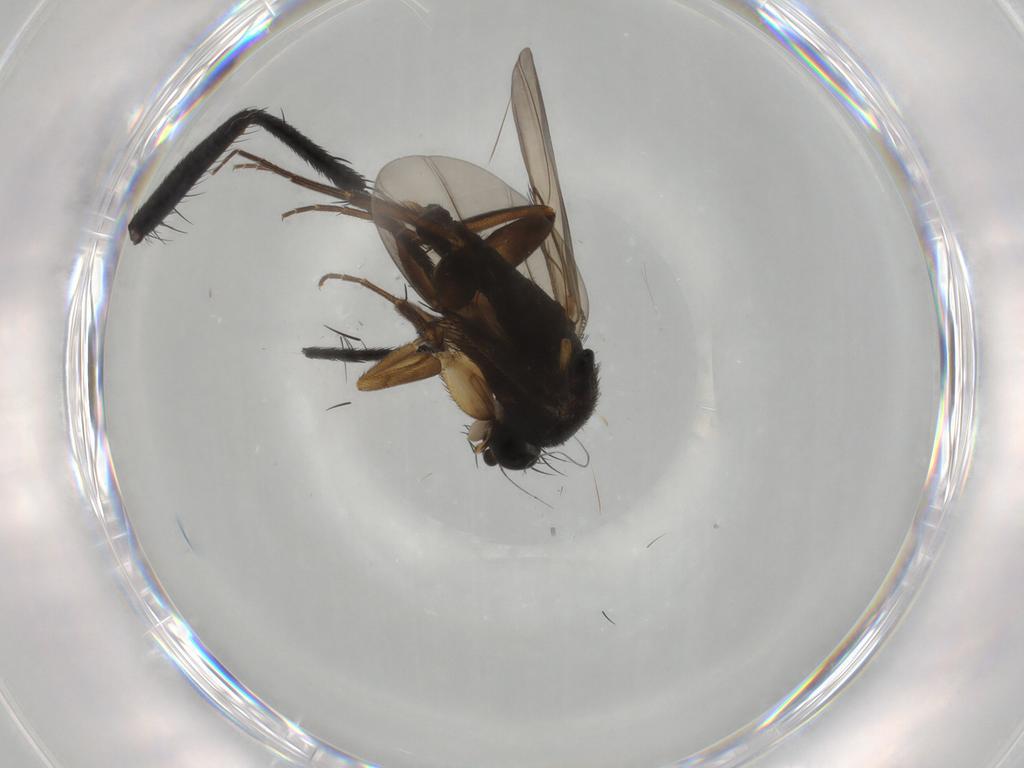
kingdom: Animalia
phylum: Arthropoda
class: Insecta
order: Diptera
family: Phoridae
